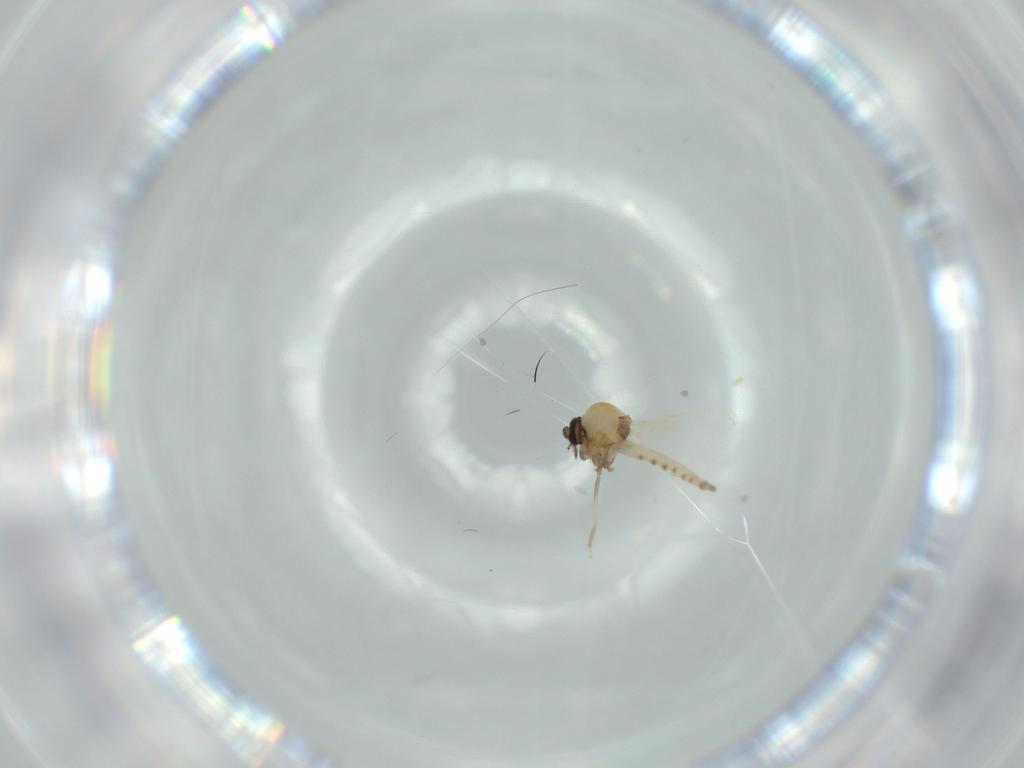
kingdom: Animalia
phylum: Arthropoda
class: Insecta
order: Diptera
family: Ceratopogonidae
